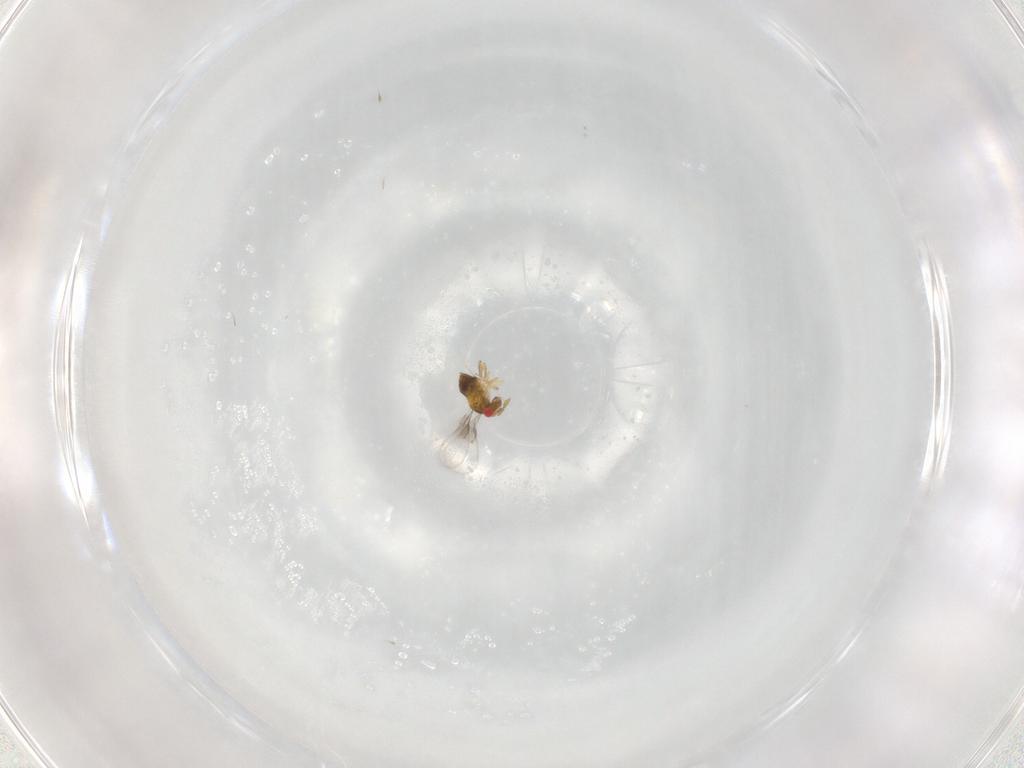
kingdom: Animalia
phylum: Arthropoda
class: Insecta
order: Hymenoptera
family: Trichogrammatidae
